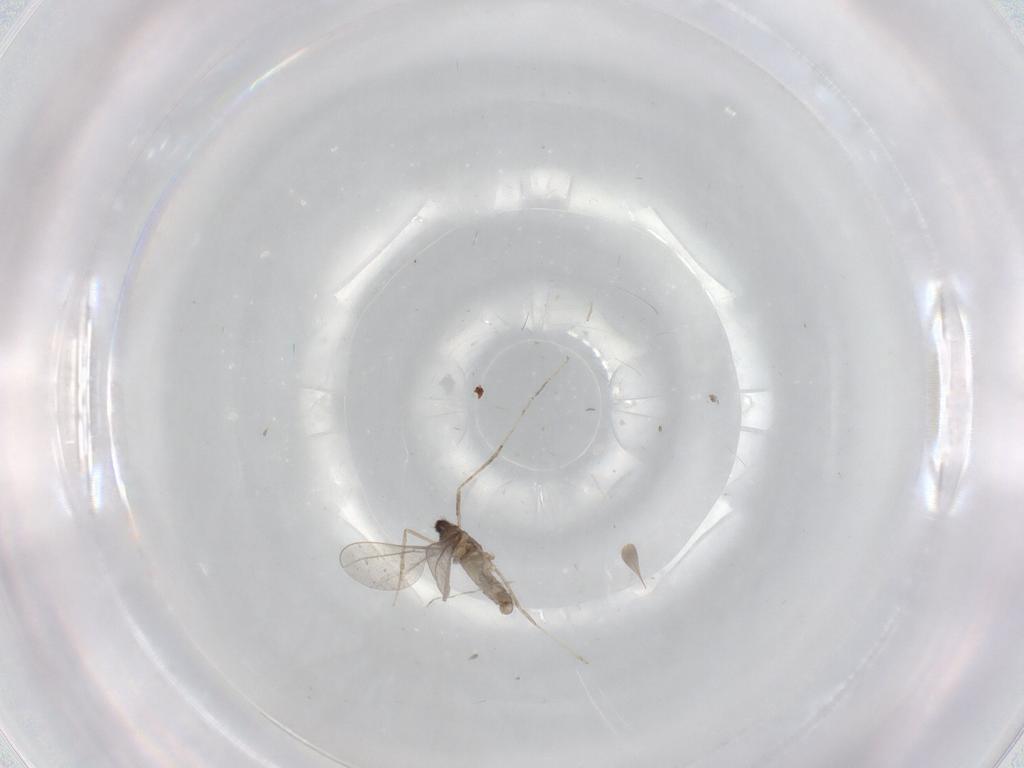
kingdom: Animalia
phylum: Arthropoda
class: Insecta
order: Diptera
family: Cecidomyiidae
